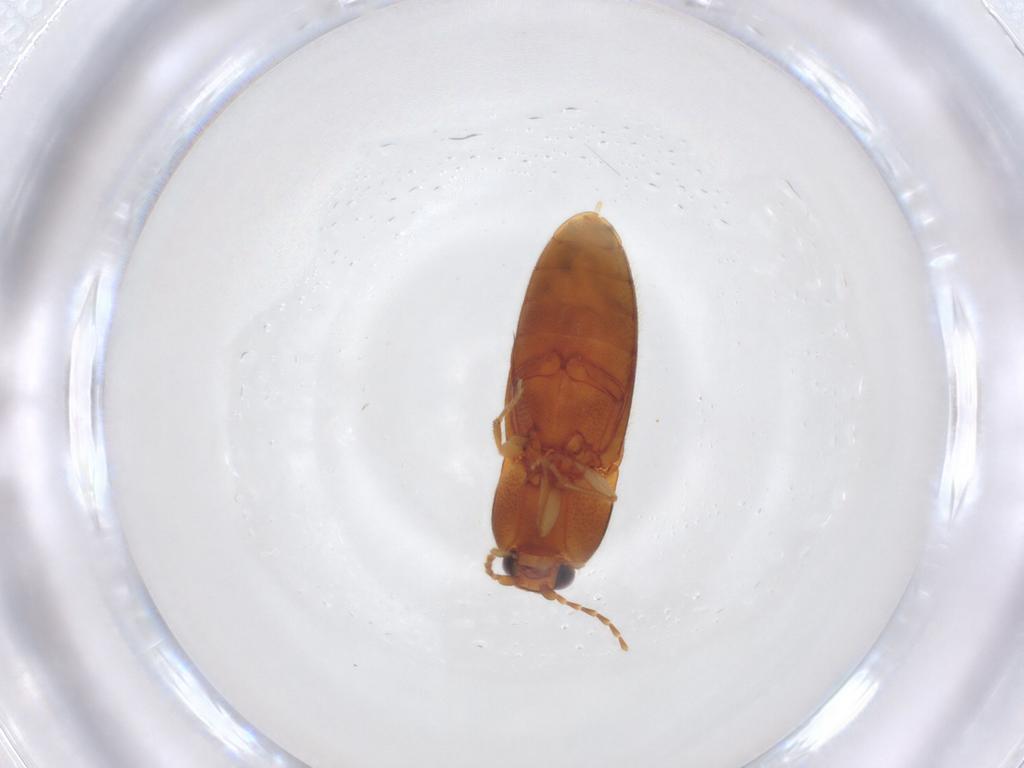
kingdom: Animalia
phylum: Arthropoda
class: Insecta
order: Coleoptera
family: Elateridae
